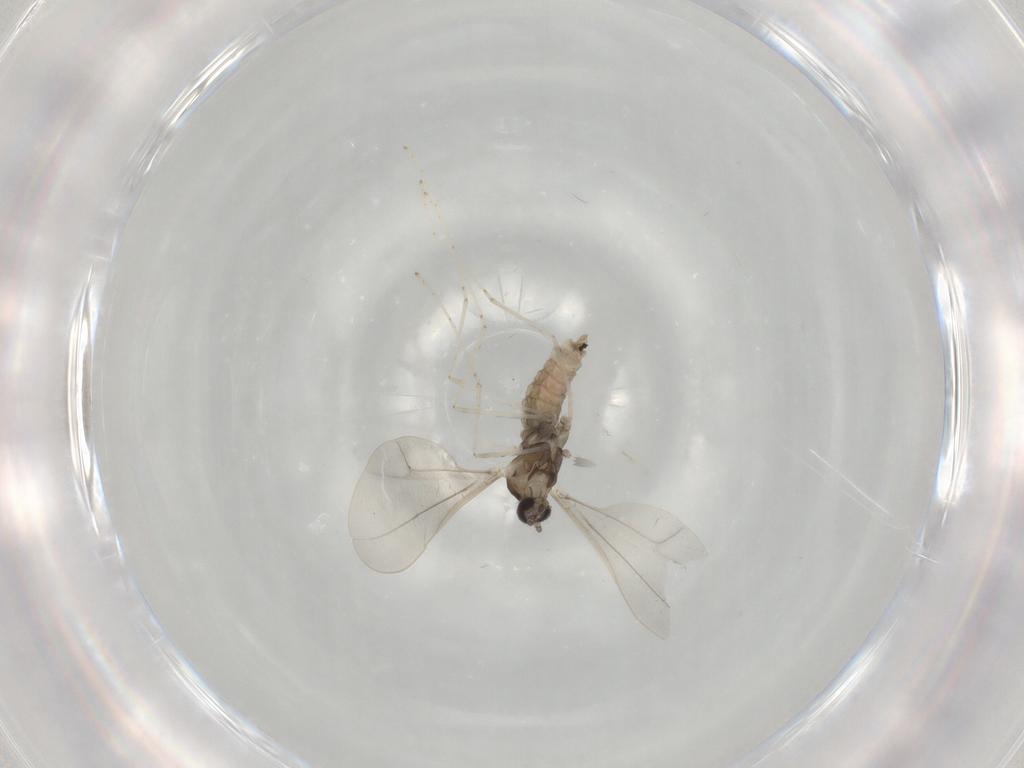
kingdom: Animalia
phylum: Arthropoda
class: Insecta
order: Diptera
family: Cecidomyiidae
